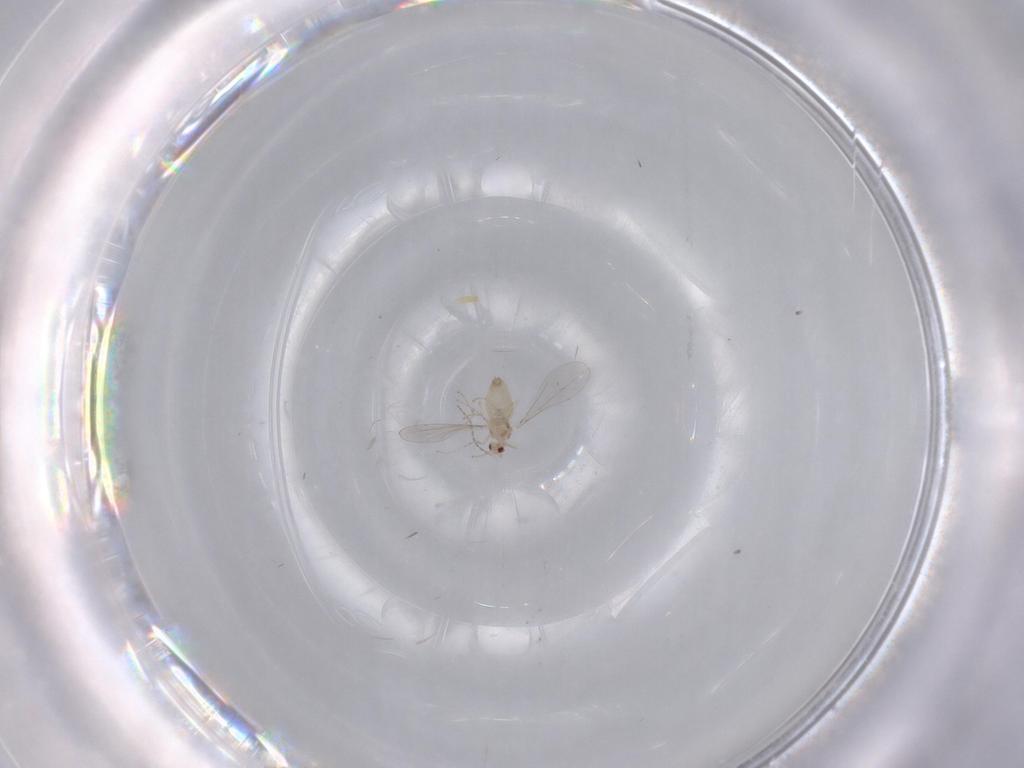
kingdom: Animalia
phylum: Arthropoda
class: Insecta
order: Diptera
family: Cecidomyiidae
